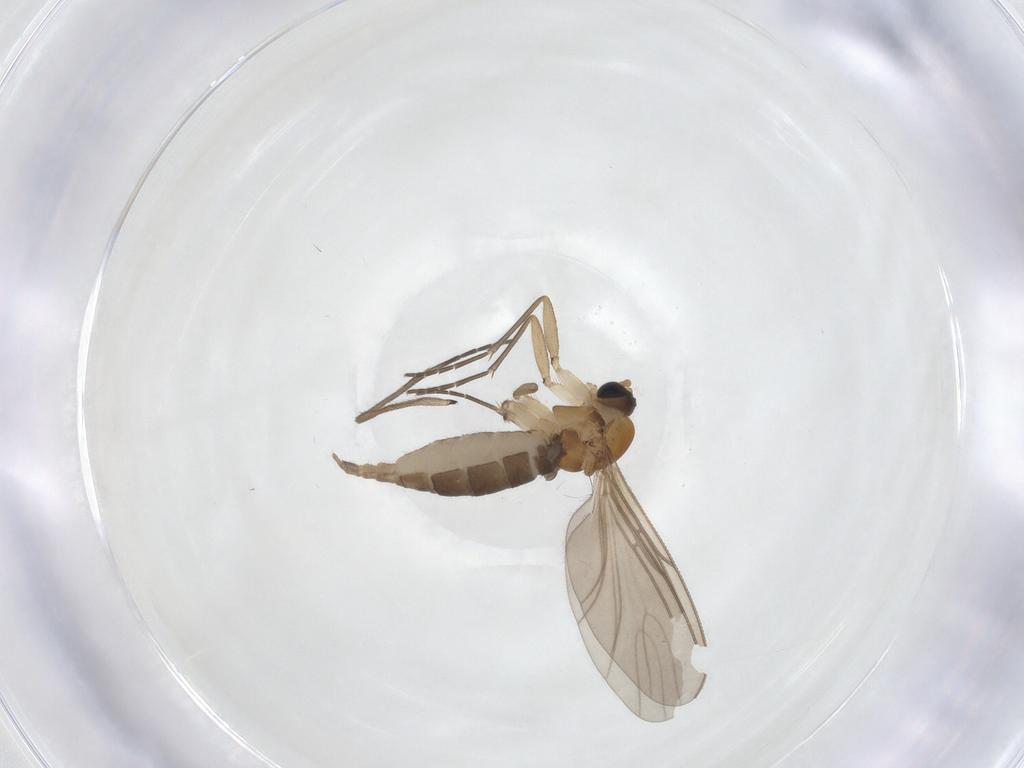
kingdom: Animalia
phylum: Arthropoda
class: Insecta
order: Diptera
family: Sciaridae
